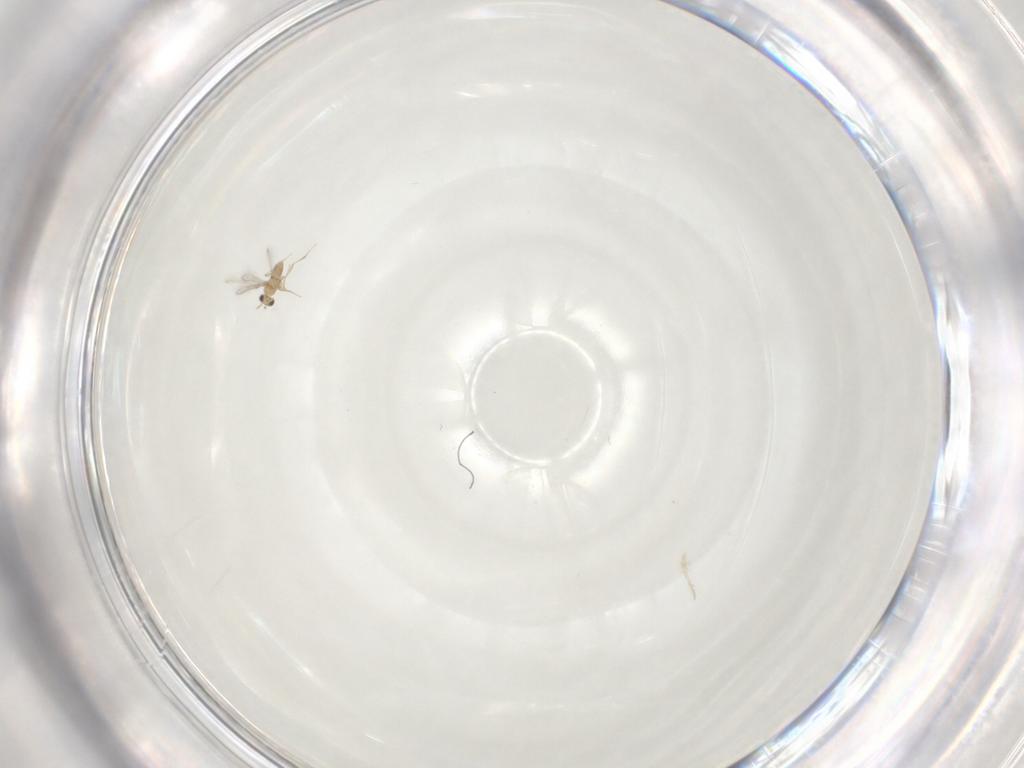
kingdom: Animalia
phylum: Arthropoda
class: Insecta
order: Hymenoptera
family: Mymaridae
